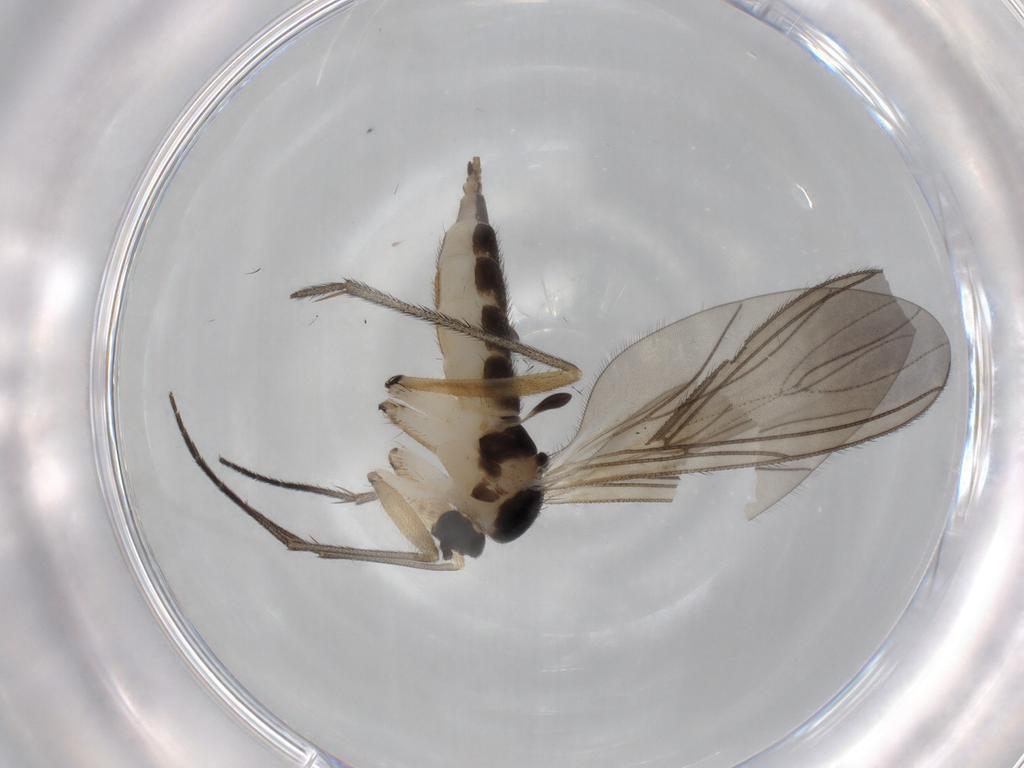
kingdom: Animalia
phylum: Arthropoda
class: Insecta
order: Diptera
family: Sciaridae
